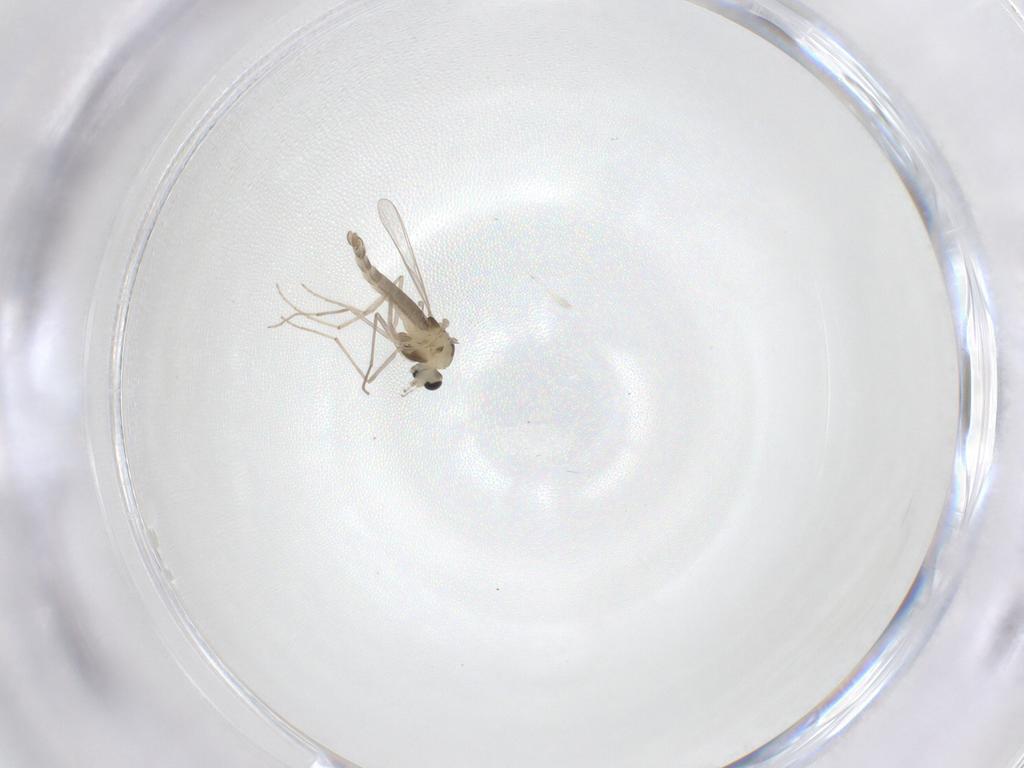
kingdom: Animalia
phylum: Arthropoda
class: Insecta
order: Diptera
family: Chironomidae
